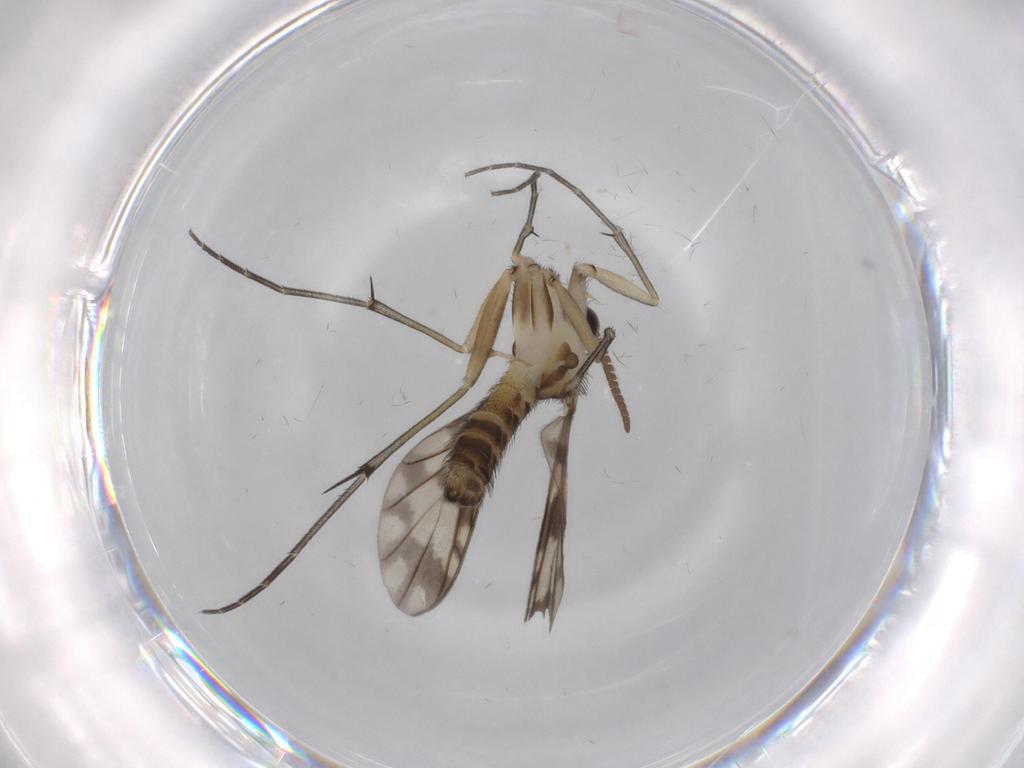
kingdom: Animalia
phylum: Arthropoda
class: Insecta
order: Diptera
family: Keroplatidae
